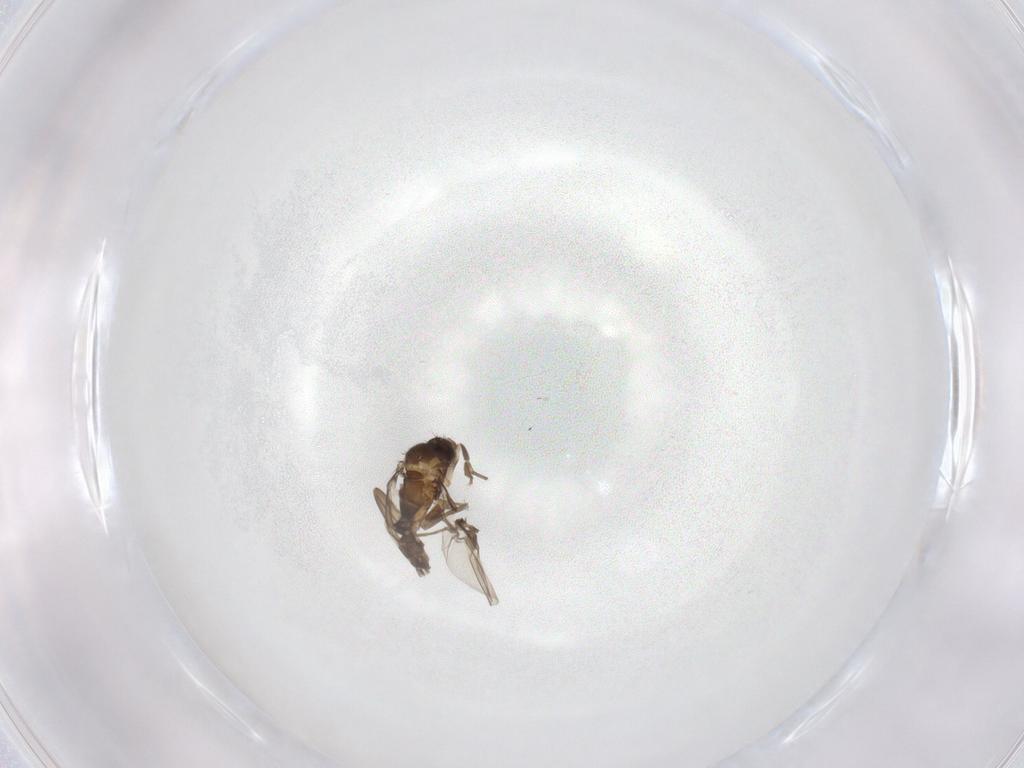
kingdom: Animalia
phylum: Arthropoda
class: Insecta
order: Diptera
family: Phoridae
